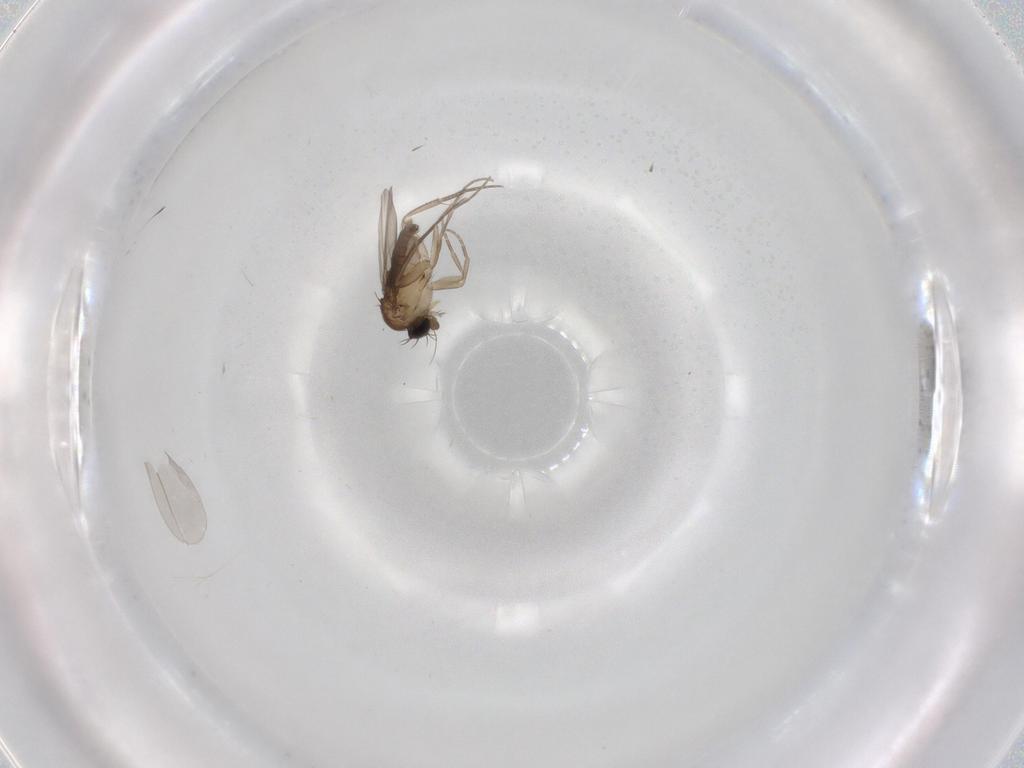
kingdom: Animalia
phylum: Arthropoda
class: Insecta
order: Diptera
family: Phoridae
